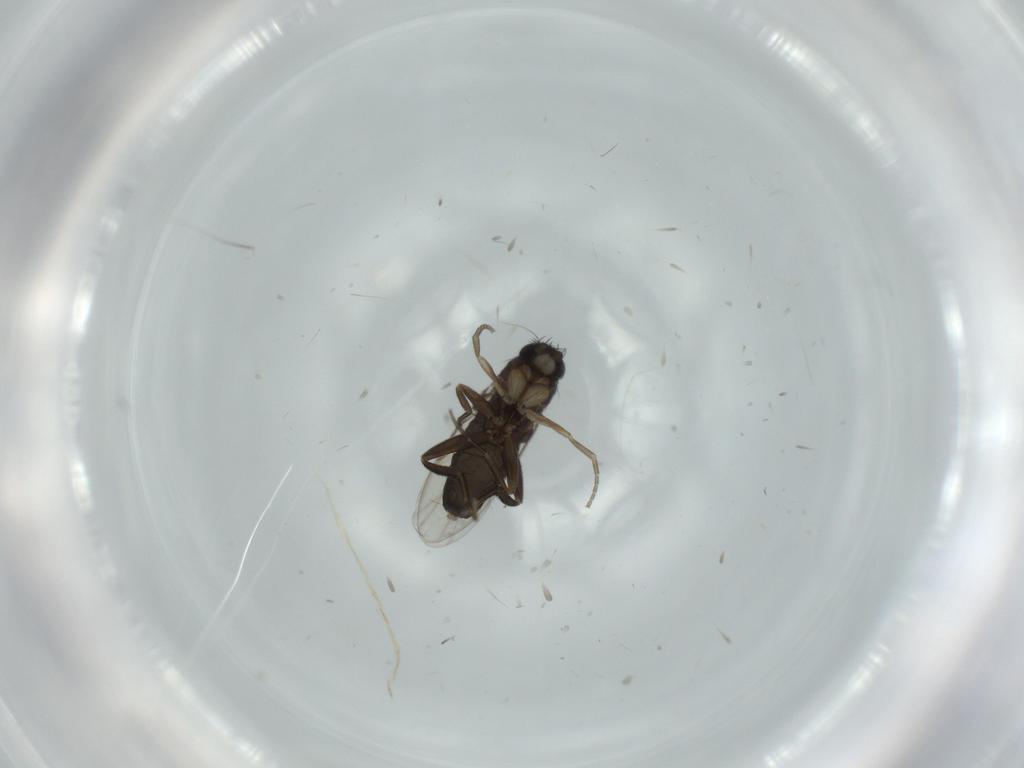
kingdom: Animalia
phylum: Arthropoda
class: Insecta
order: Diptera
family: Phoridae
